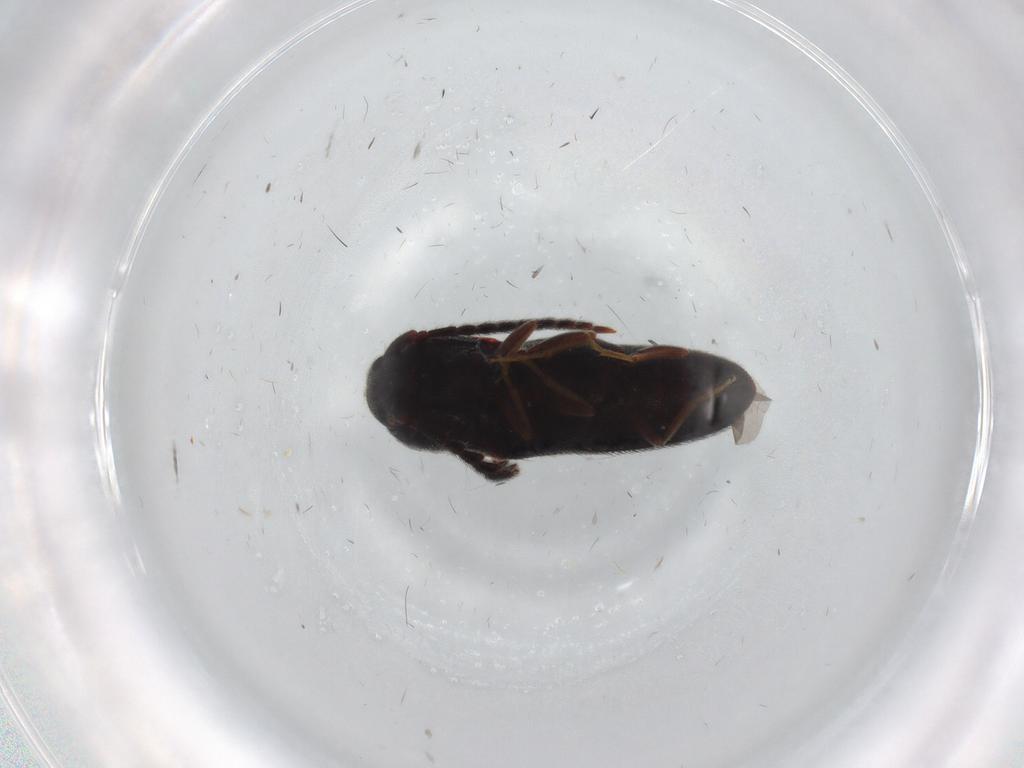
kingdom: Animalia
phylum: Arthropoda
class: Insecta
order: Coleoptera
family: Eucnemidae
